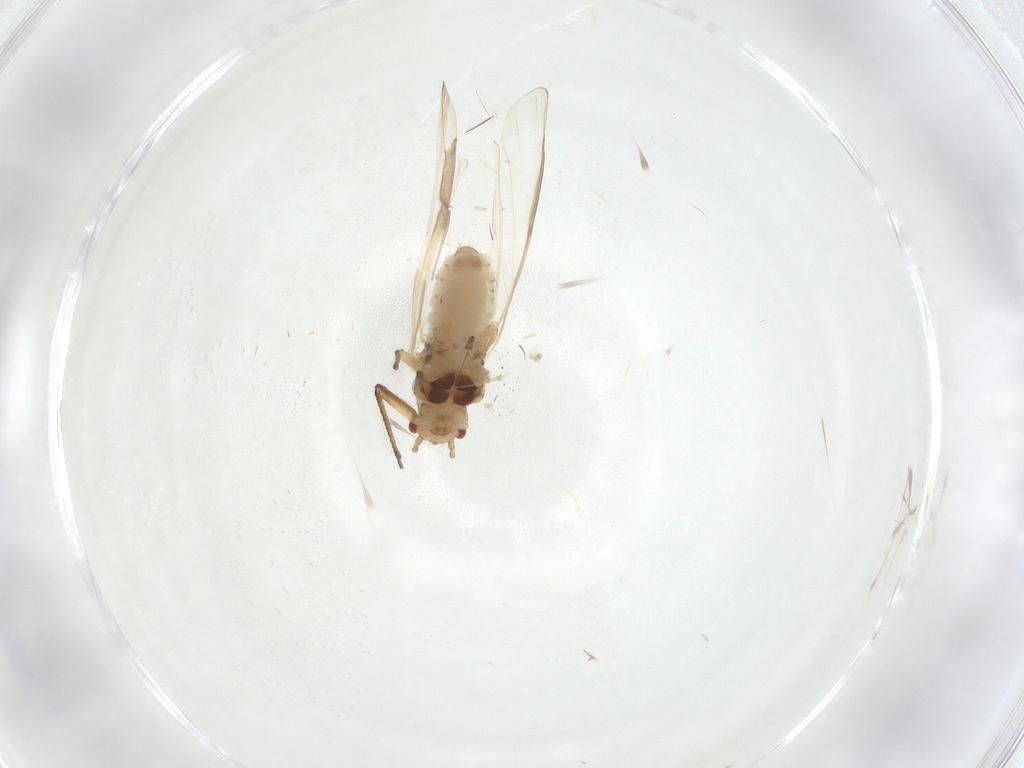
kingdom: Animalia
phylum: Arthropoda
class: Insecta
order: Hemiptera
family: Lachnidae
